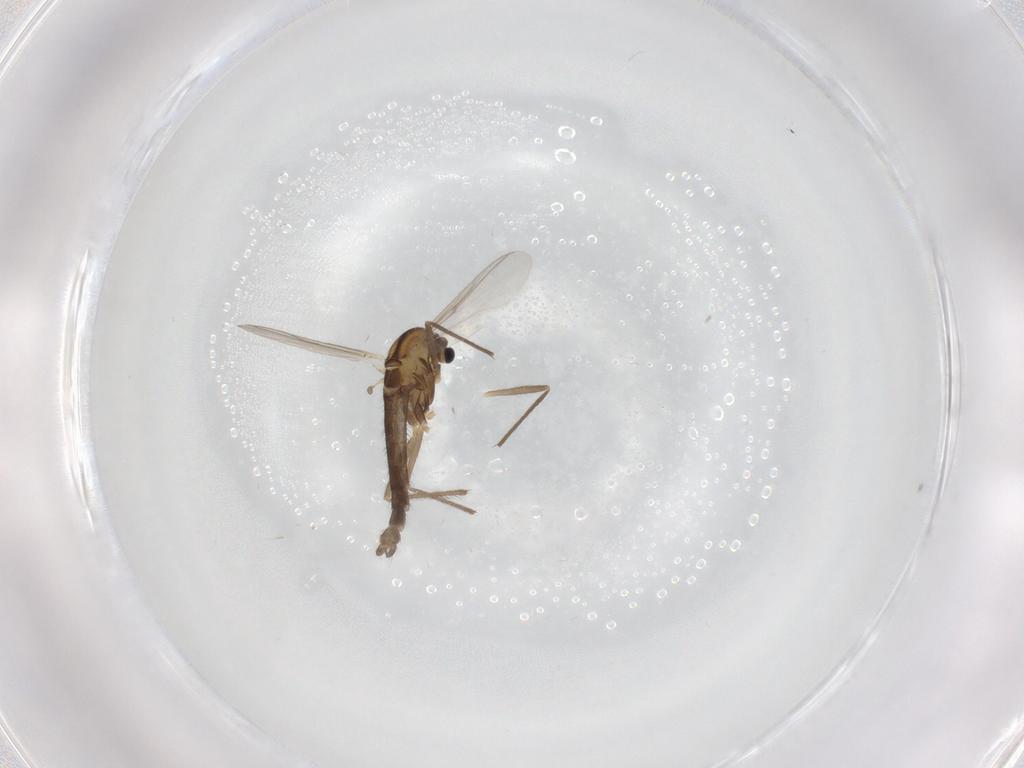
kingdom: Animalia
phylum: Arthropoda
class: Insecta
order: Diptera
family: Chironomidae
